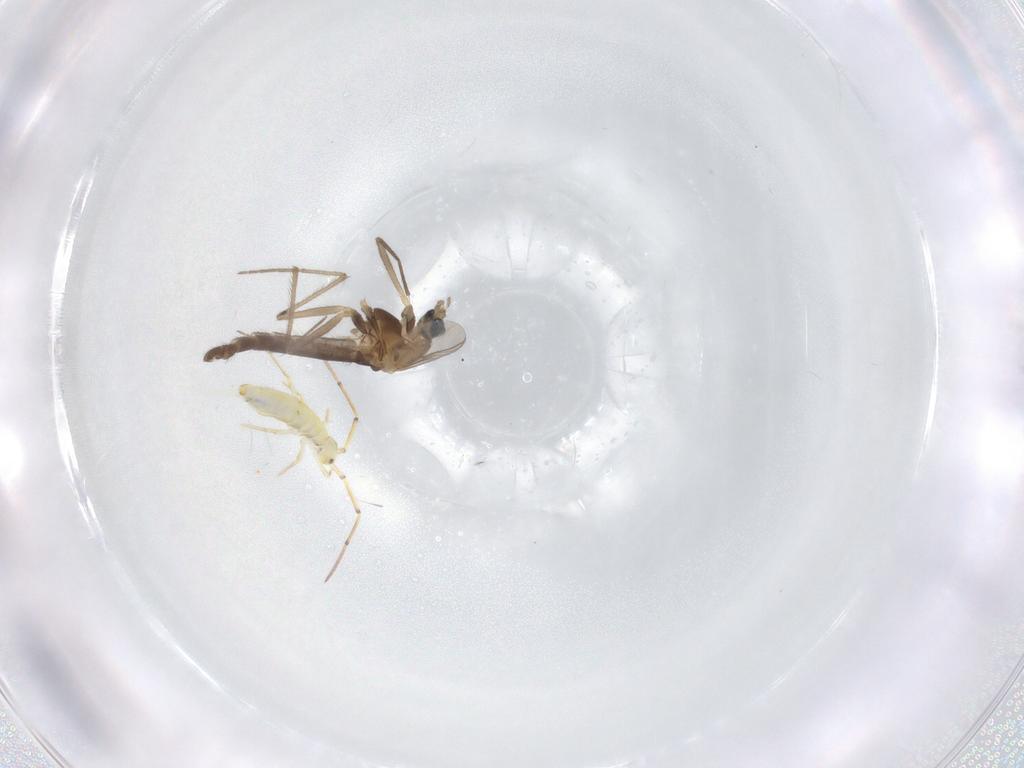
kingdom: Animalia
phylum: Arthropoda
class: Insecta
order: Diptera
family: Chironomidae
